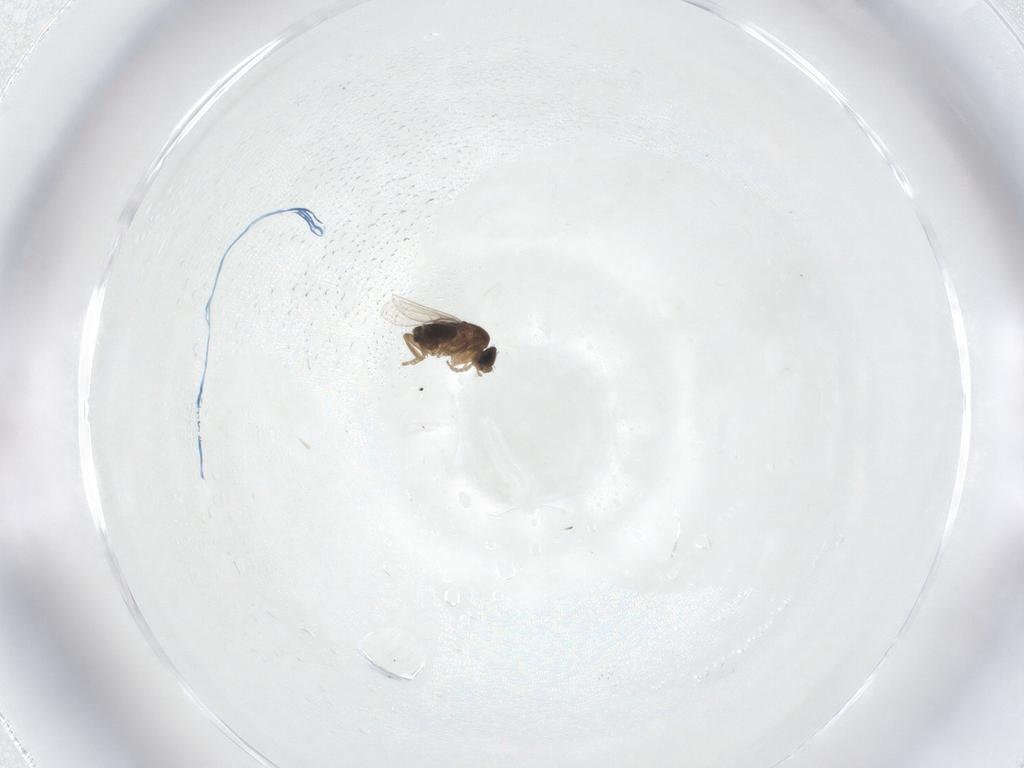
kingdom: Animalia
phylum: Arthropoda
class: Insecta
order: Diptera
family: Phoridae
